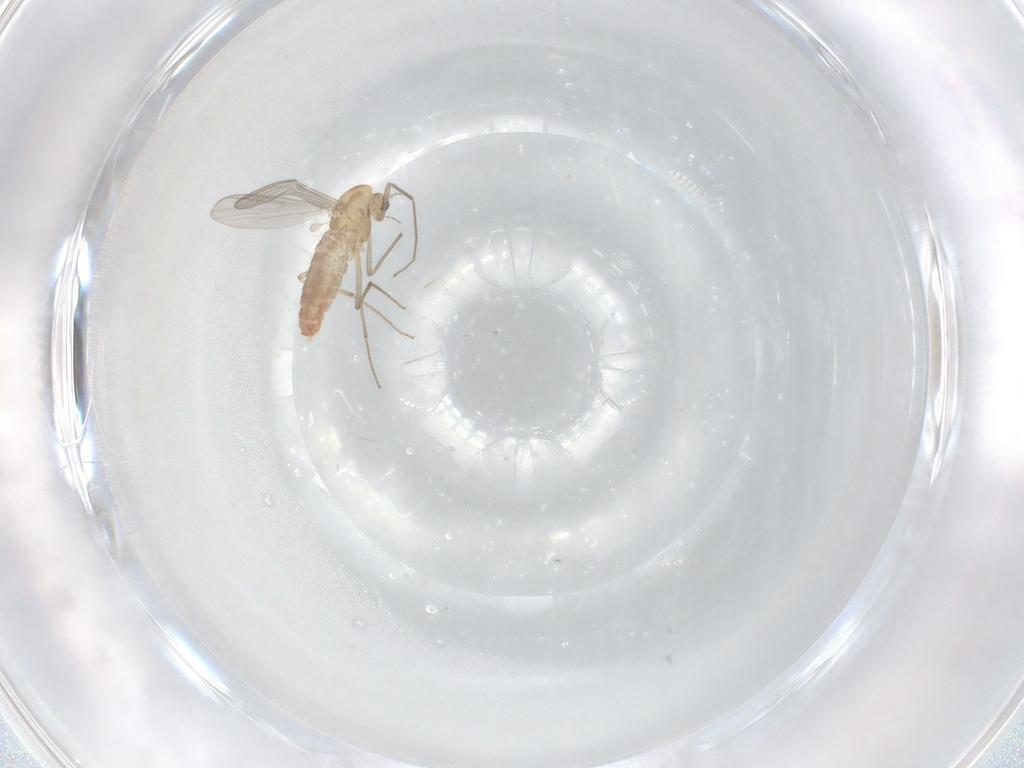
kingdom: Animalia
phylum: Arthropoda
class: Insecta
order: Diptera
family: Chironomidae
